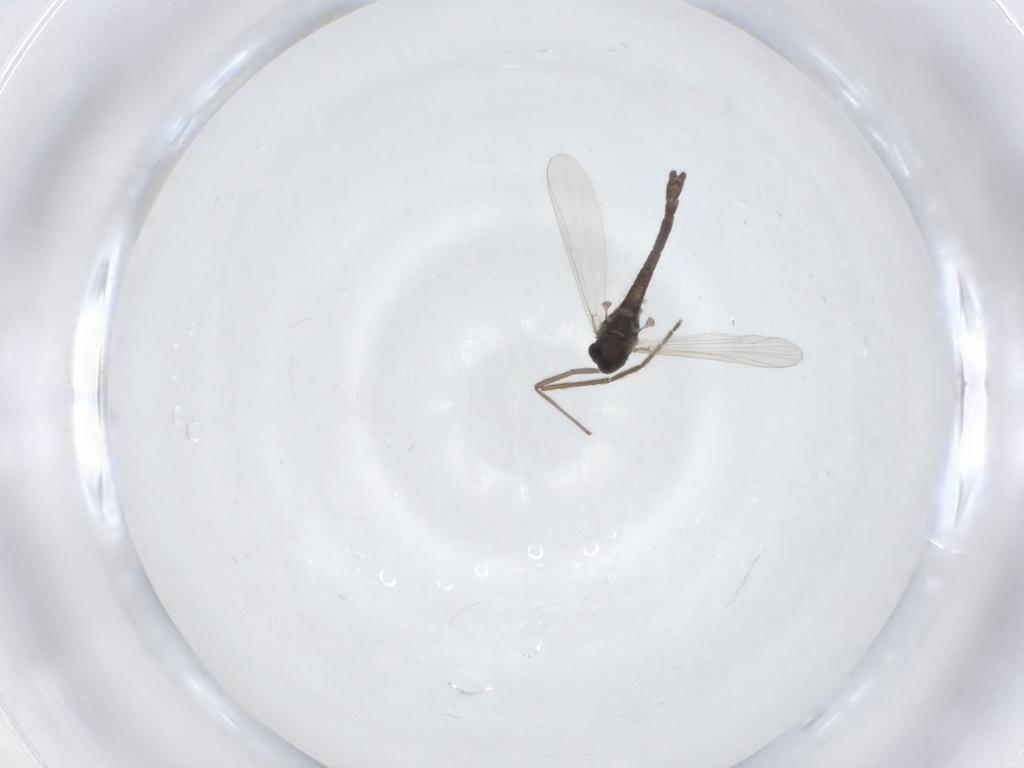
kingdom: Animalia
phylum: Arthropoda
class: Insecta
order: Diptera
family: Chironomidae
